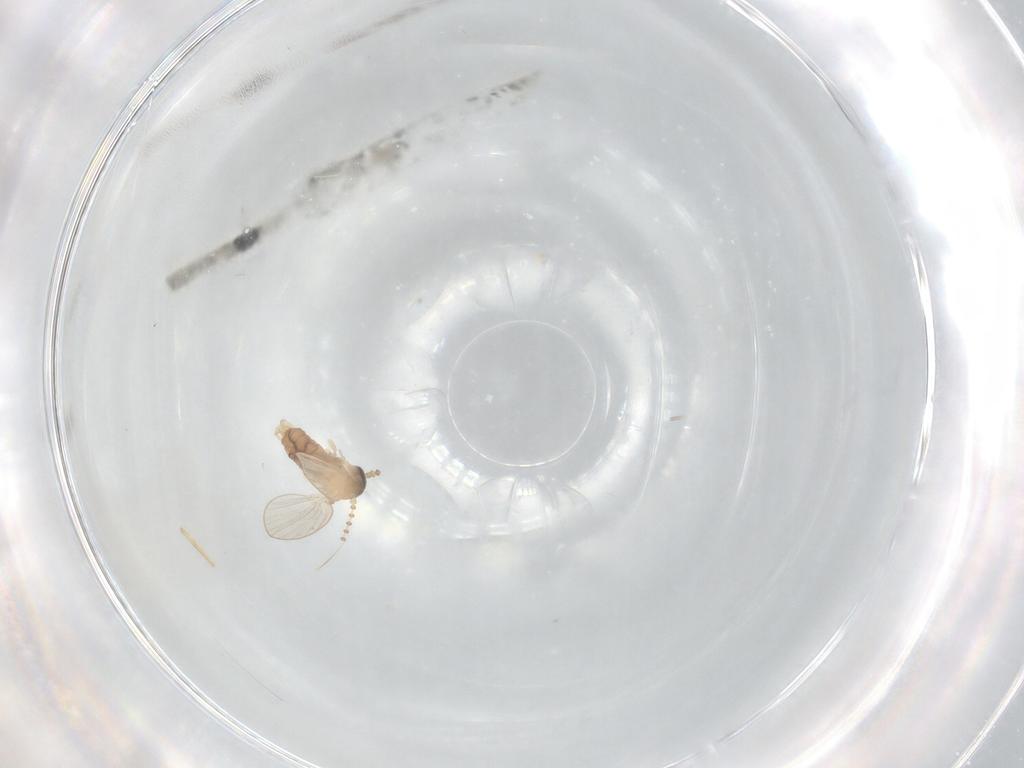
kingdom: Animalia
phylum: Arthropoda
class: Insecta
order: Diptera
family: Psychodidae
